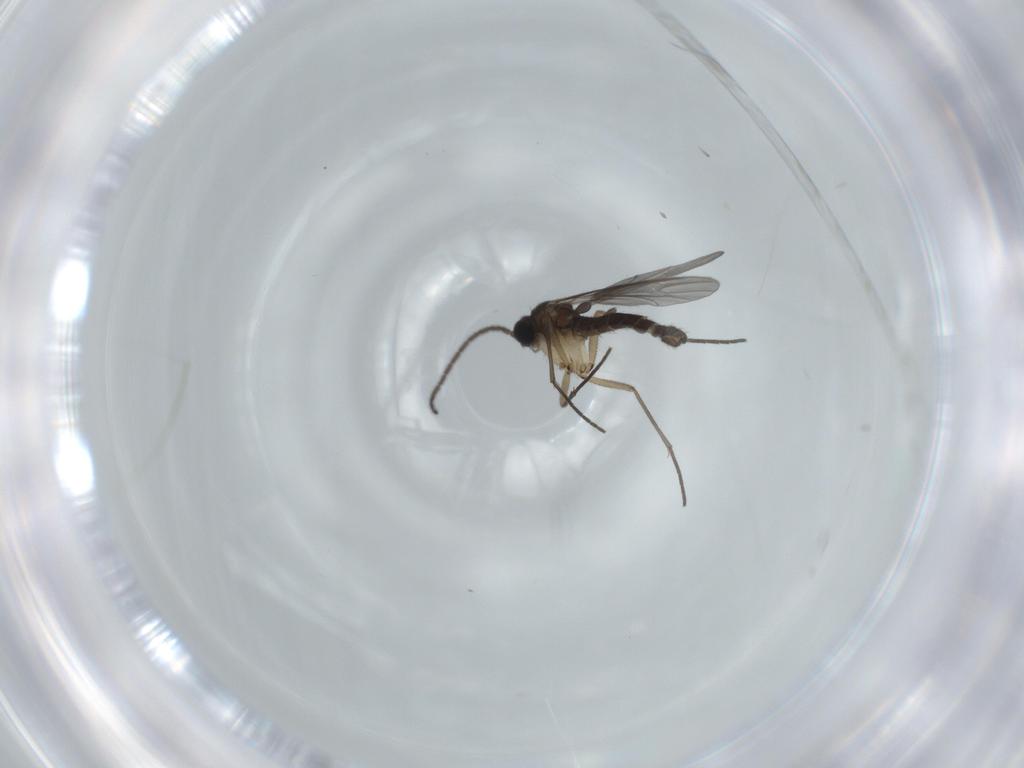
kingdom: Animalia
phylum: Arthropoda
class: Insecta
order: Diptera
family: Sciaridae
